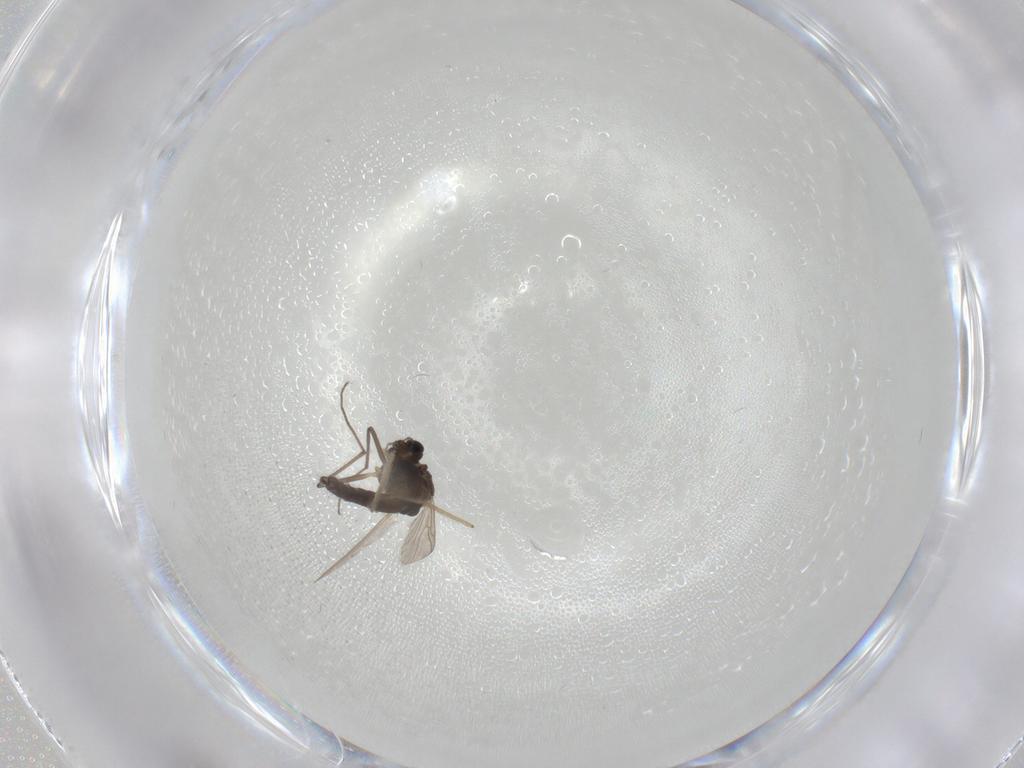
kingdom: Animalia
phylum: Arthropoda
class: Insecta
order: Diptera
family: Chironomidae
